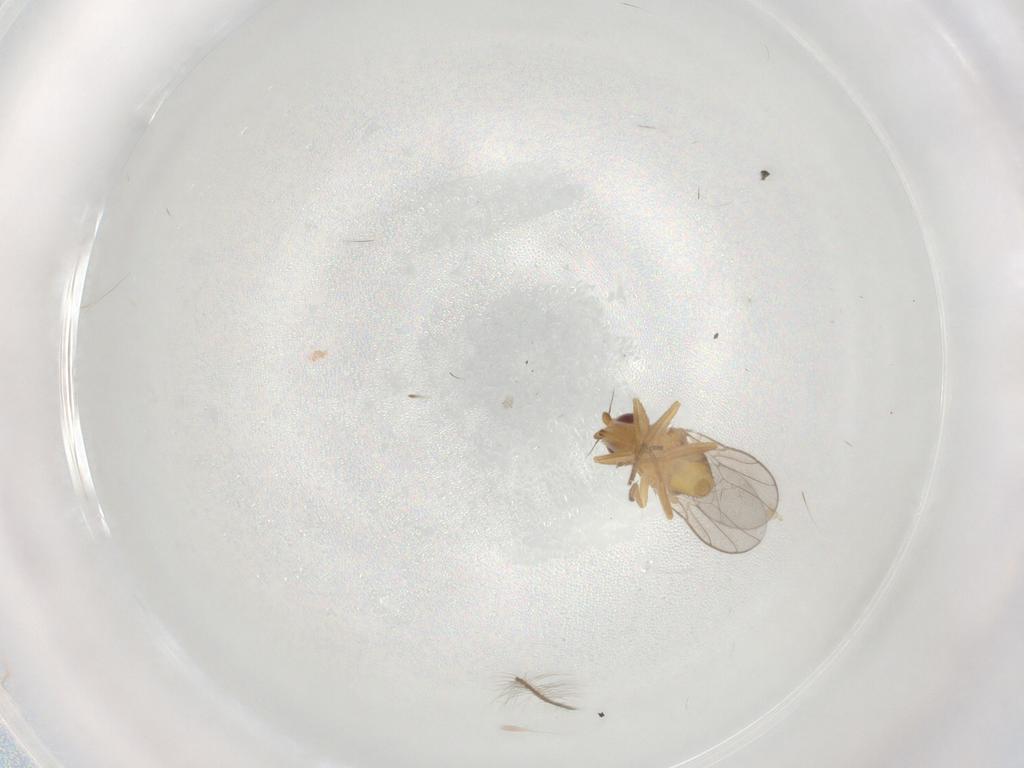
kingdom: Animalia
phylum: Arthropoda
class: Insecta
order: Diptera
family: Chloropidae
